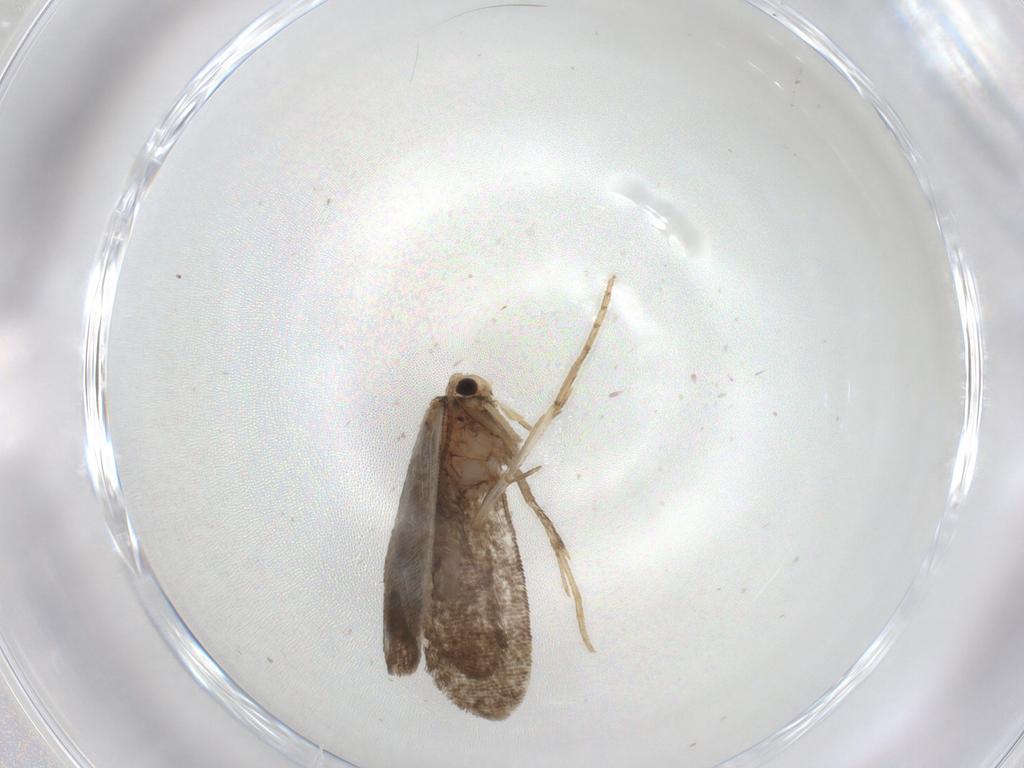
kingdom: Animalia
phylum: Arthropoda
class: Insecta
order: Lepidoptera
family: Psychidae
